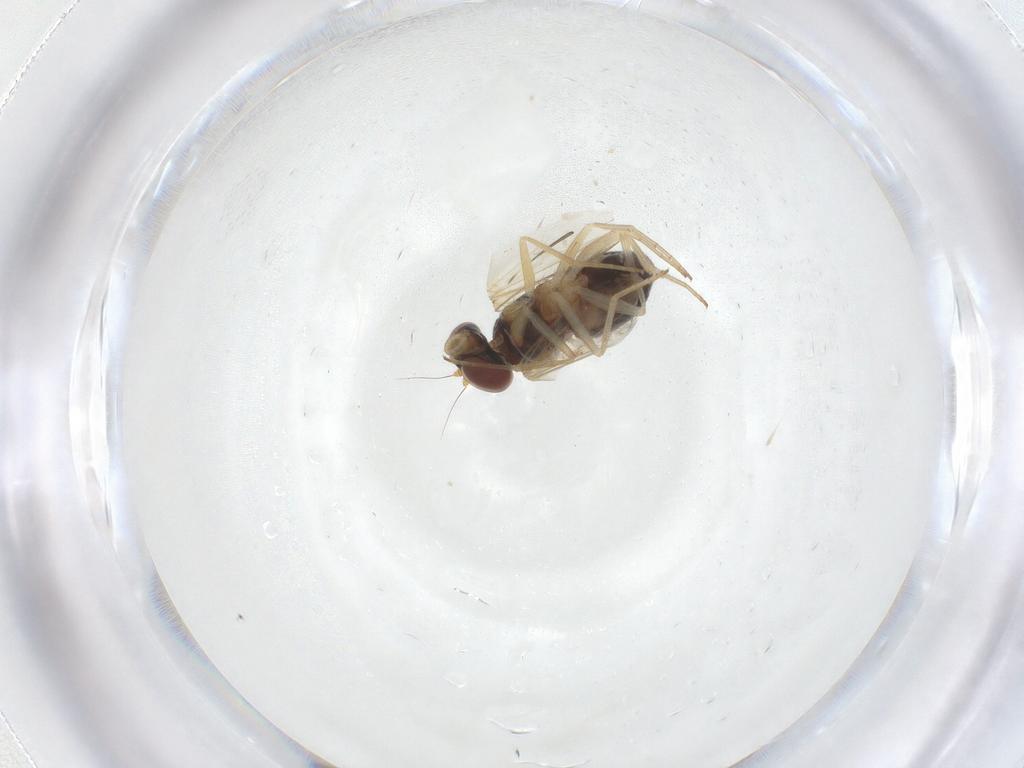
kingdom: Animalia
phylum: Arthropoda
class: Insecta
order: Diptera
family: Dolichopodidae
